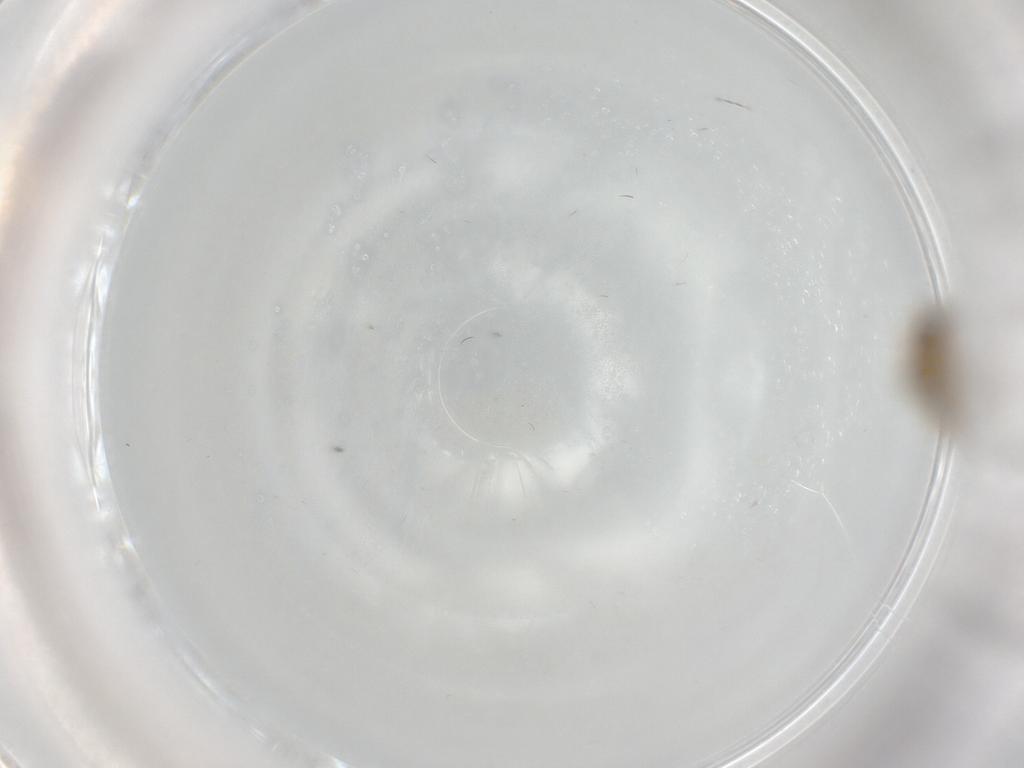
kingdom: Animalia
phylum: Arthropoda
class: Insecta
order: Diptera
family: Ceratopogonidae
